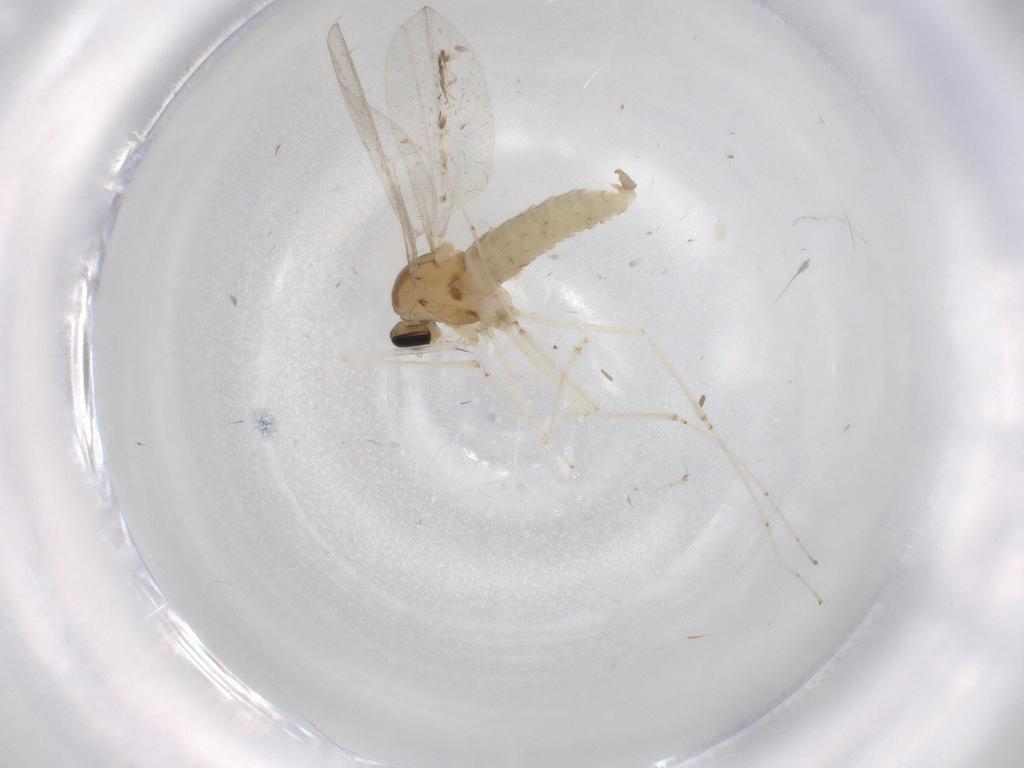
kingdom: Animalia
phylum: Arthropoda
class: Insecta
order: Diptera
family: Cecidomyiidae
